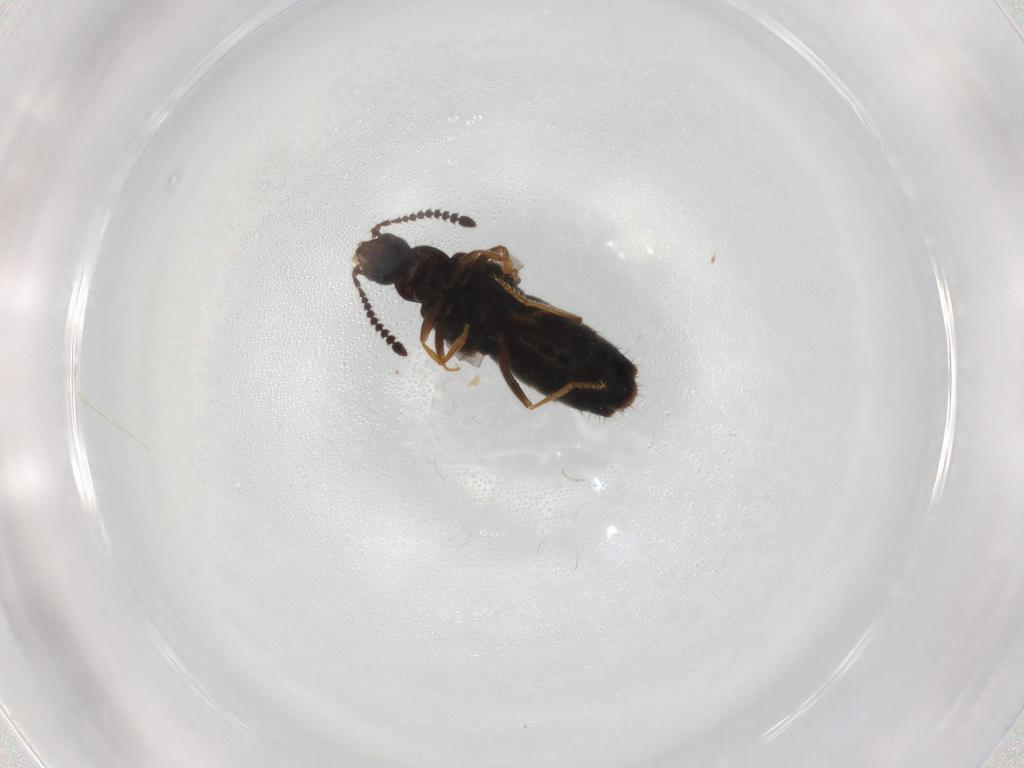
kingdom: Animalia
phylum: Arthropoda
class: Insecta
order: Coleoptera
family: Staphylinidae
